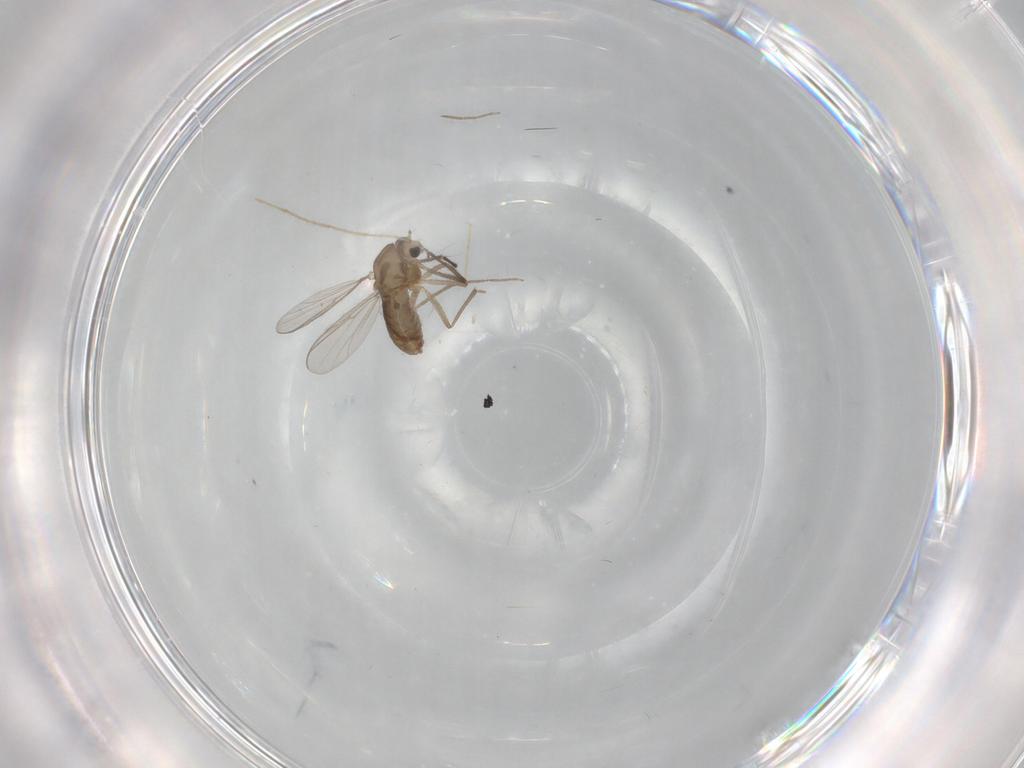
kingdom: Animalia
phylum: Arthropoda
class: Insecta
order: Diptera
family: Chironomidae
